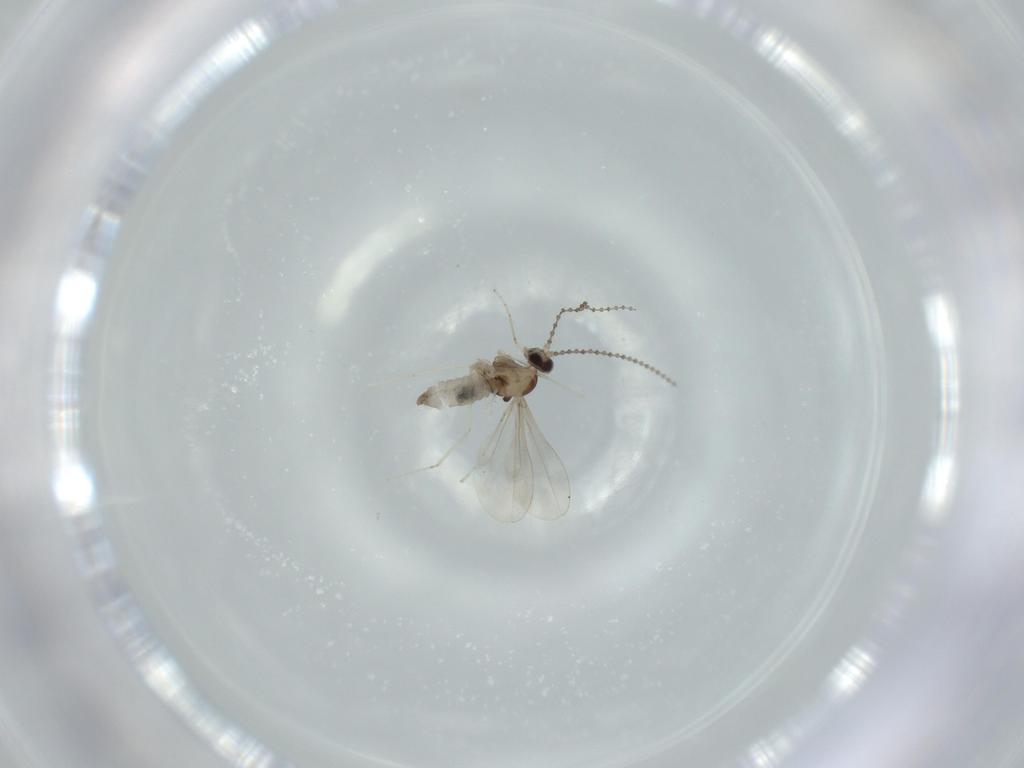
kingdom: Animalia
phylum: Arthropoda
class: Insecta
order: Diptera
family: Cecidomyiidae
